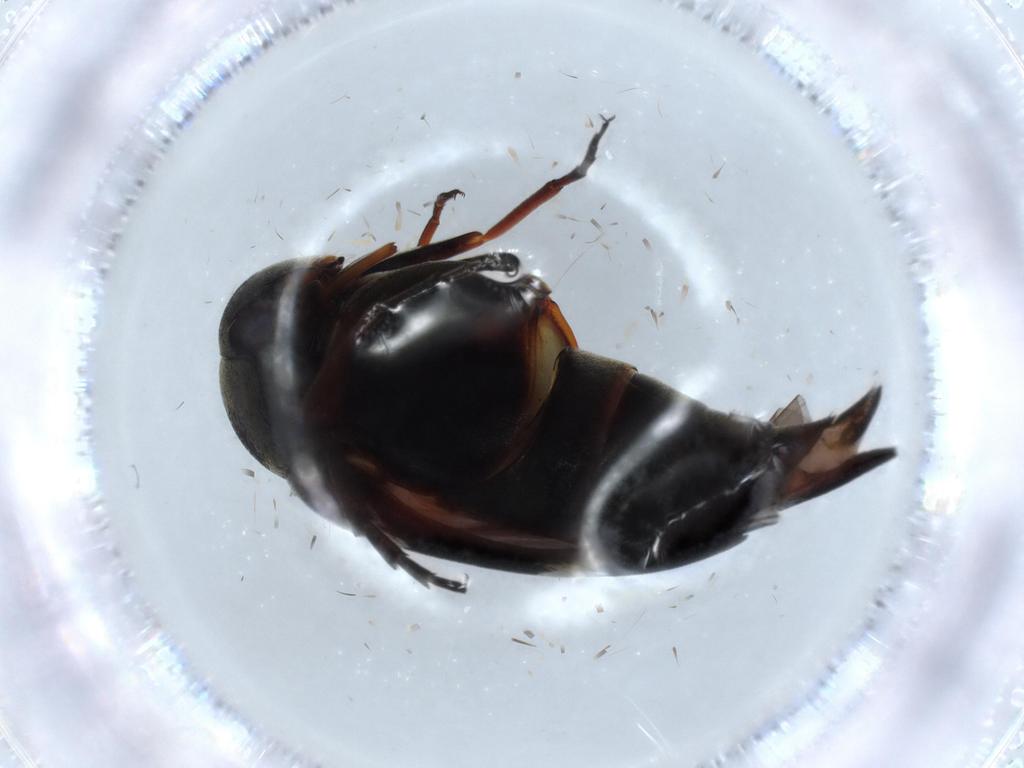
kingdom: Animalia
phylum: Arthropoda
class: Insecta
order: Coleoptera
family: Mordellidae
